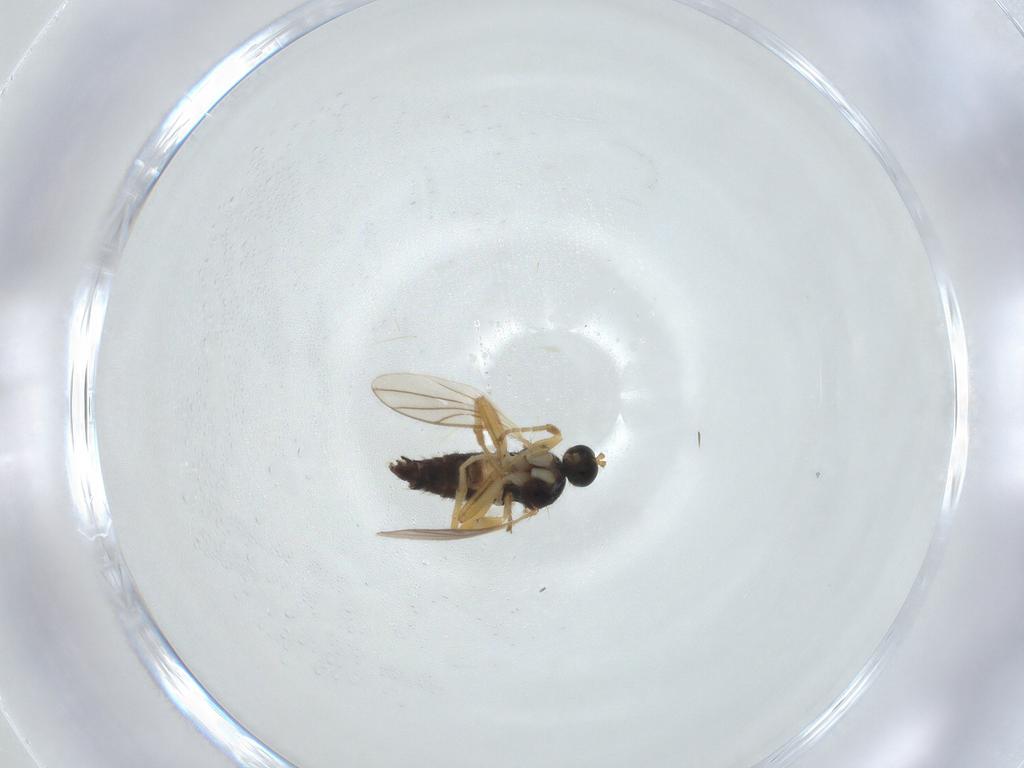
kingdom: Animalia
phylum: Arthropoda
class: Insecta
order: Diptera
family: Hybotidae
